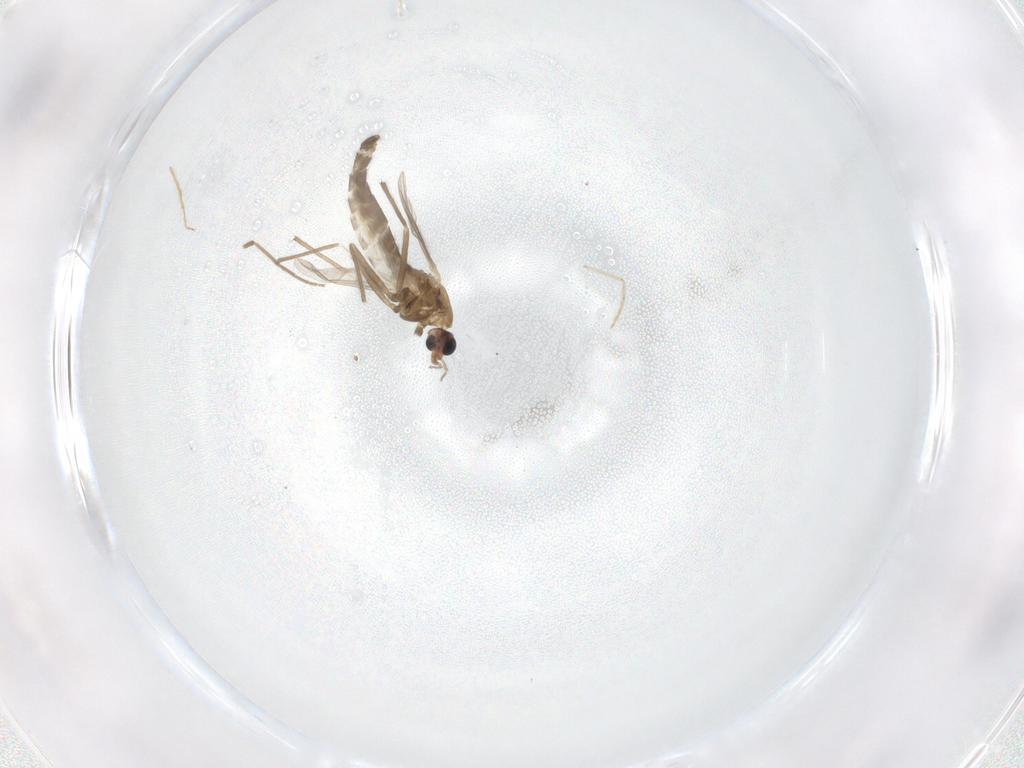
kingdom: Animalia
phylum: Arthropoda
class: Insecta
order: Diptera
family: Chironomidae
